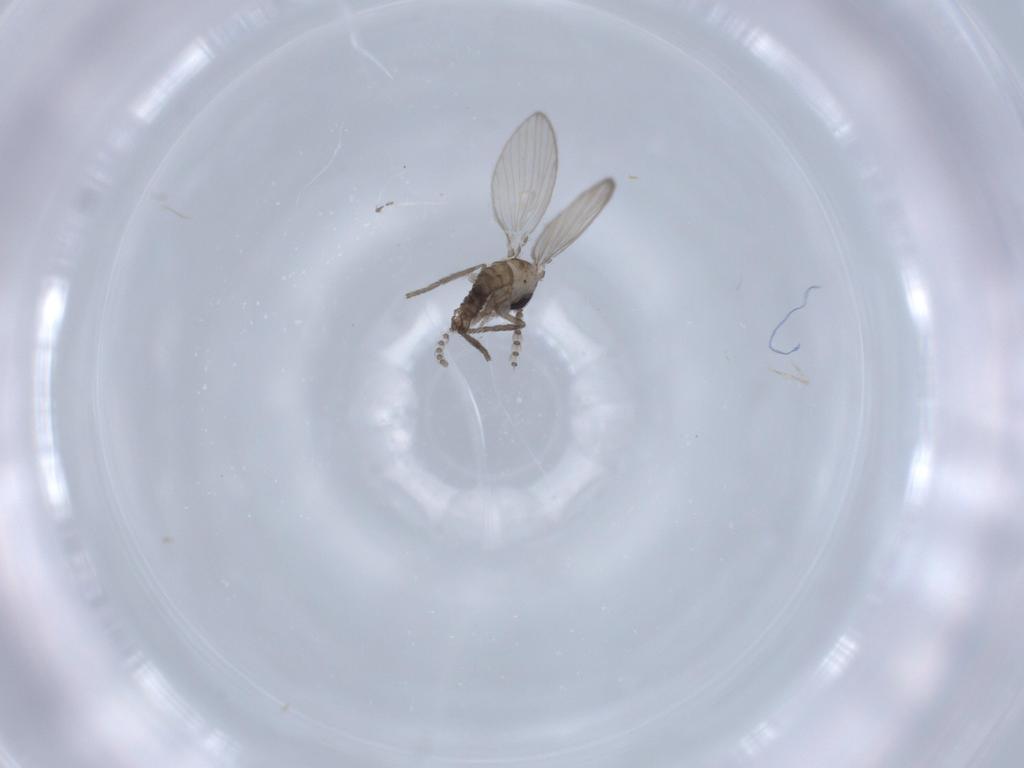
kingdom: Animalia
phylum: Arthropoda
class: Insecta
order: Diptera
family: Psychodidae
